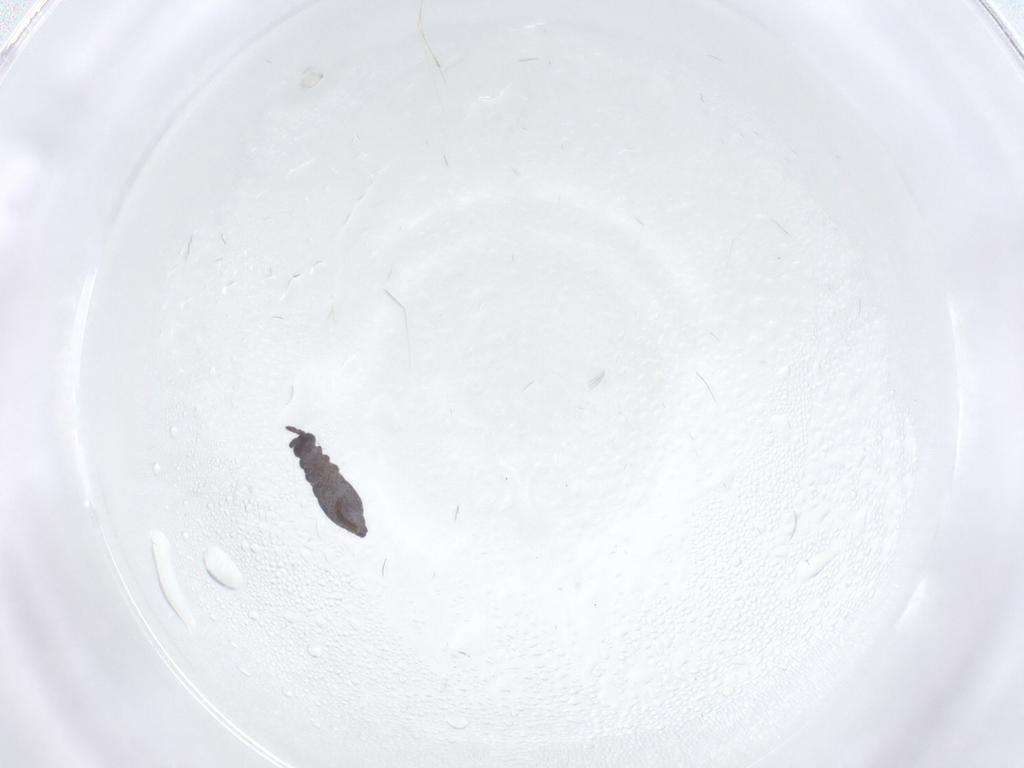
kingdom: Animalia
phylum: Arthropoda
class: Collembola
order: Poduromorpha
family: Hypogastruridae
